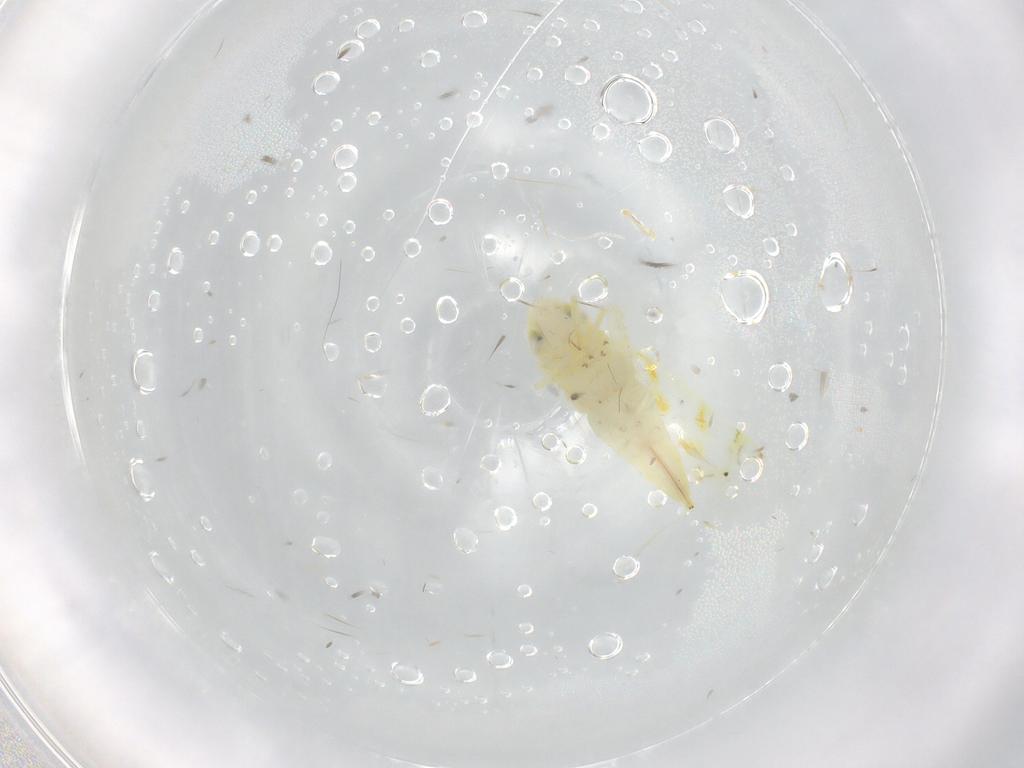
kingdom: Animalia
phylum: Arthropoda
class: Insecta
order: Hemiptera
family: Cicadellidae
